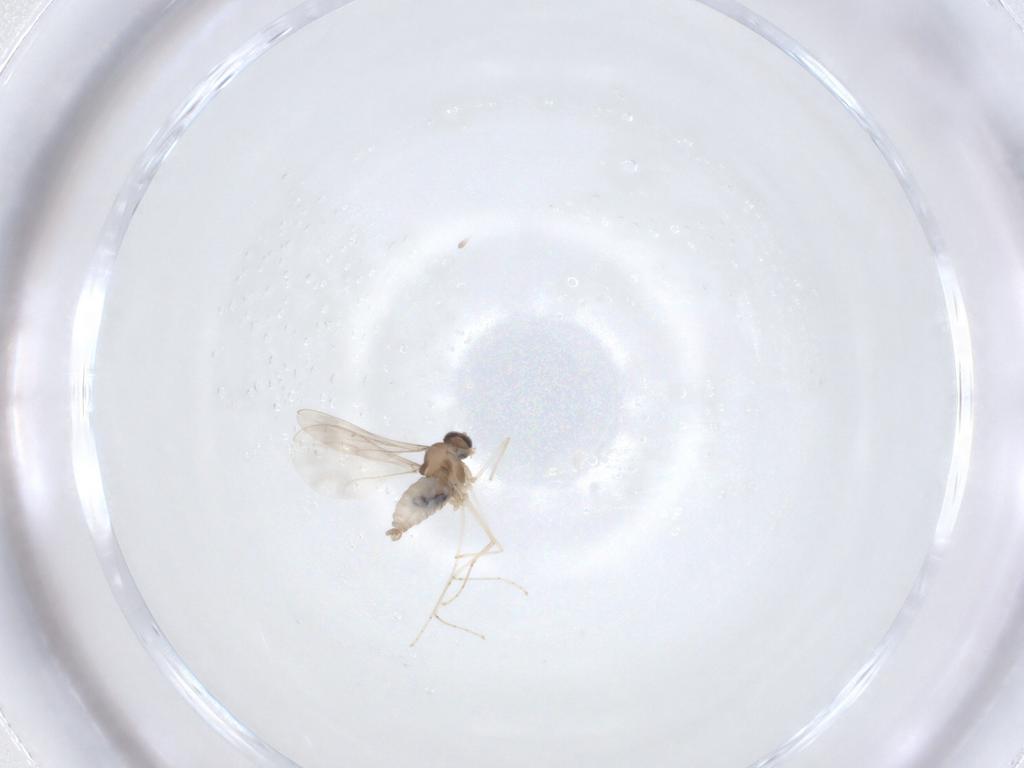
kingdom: Animalia
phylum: Arthropoda
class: Insecta
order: Diptera
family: Cecidomyiidae
